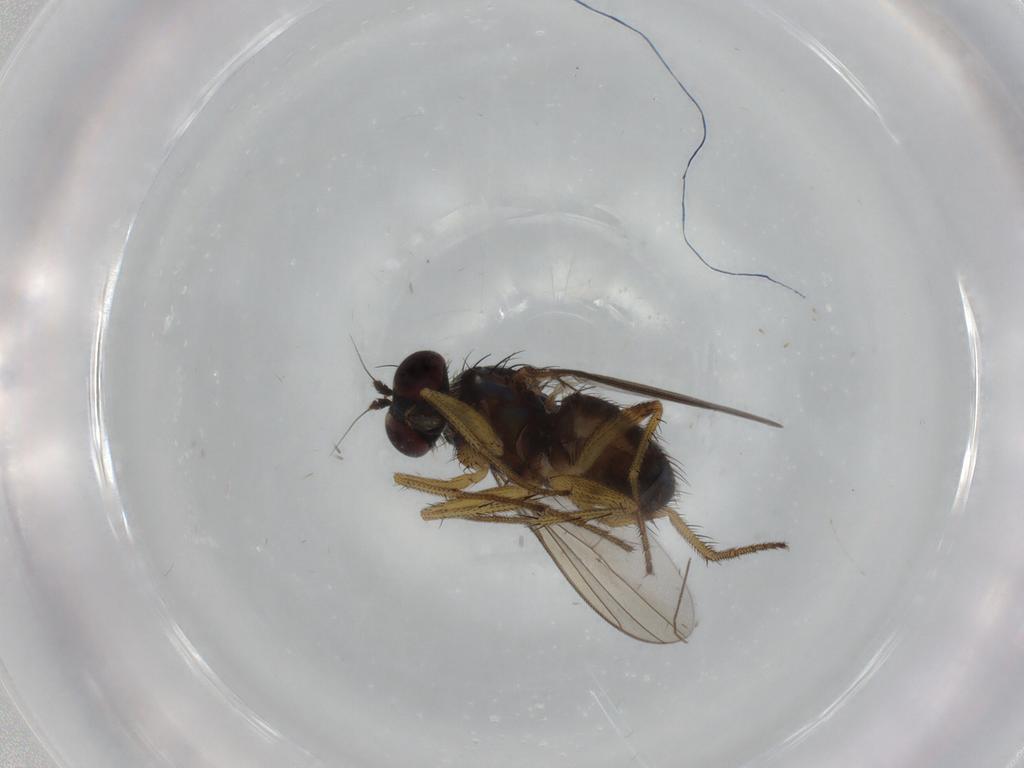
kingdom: Animalia
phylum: Arthropoda
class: Insecta
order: Diptera
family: Dolichopodidae
